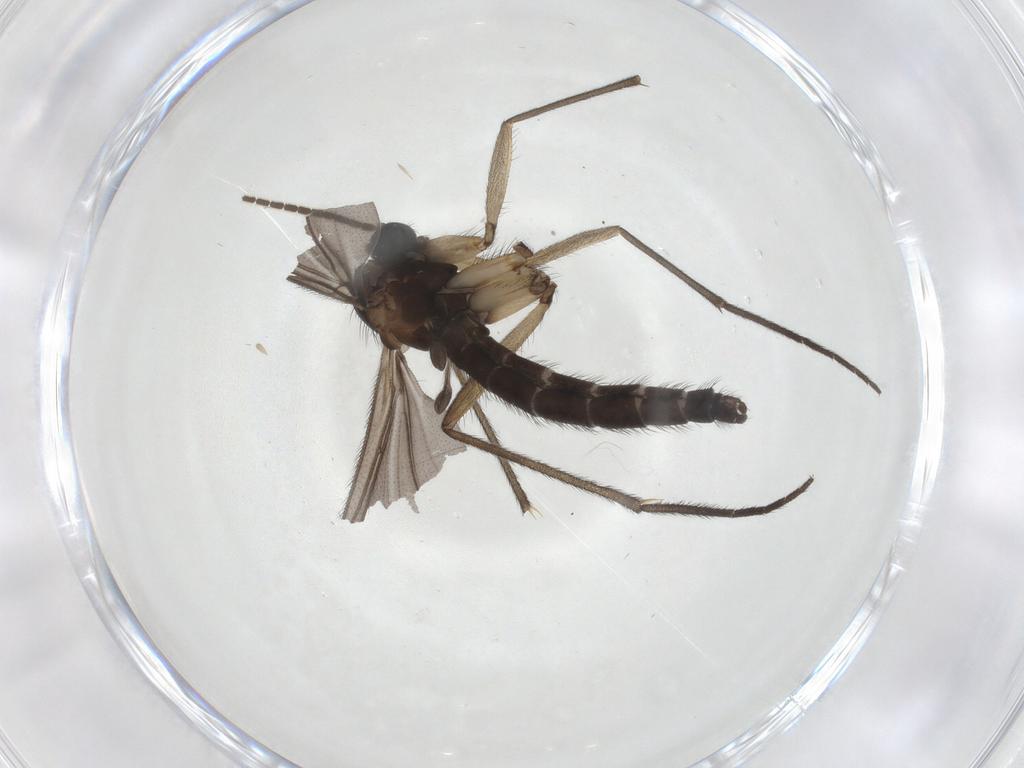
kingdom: Animalia
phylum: Arthropoda
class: Insecta
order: Diptera
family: Sciaridae
